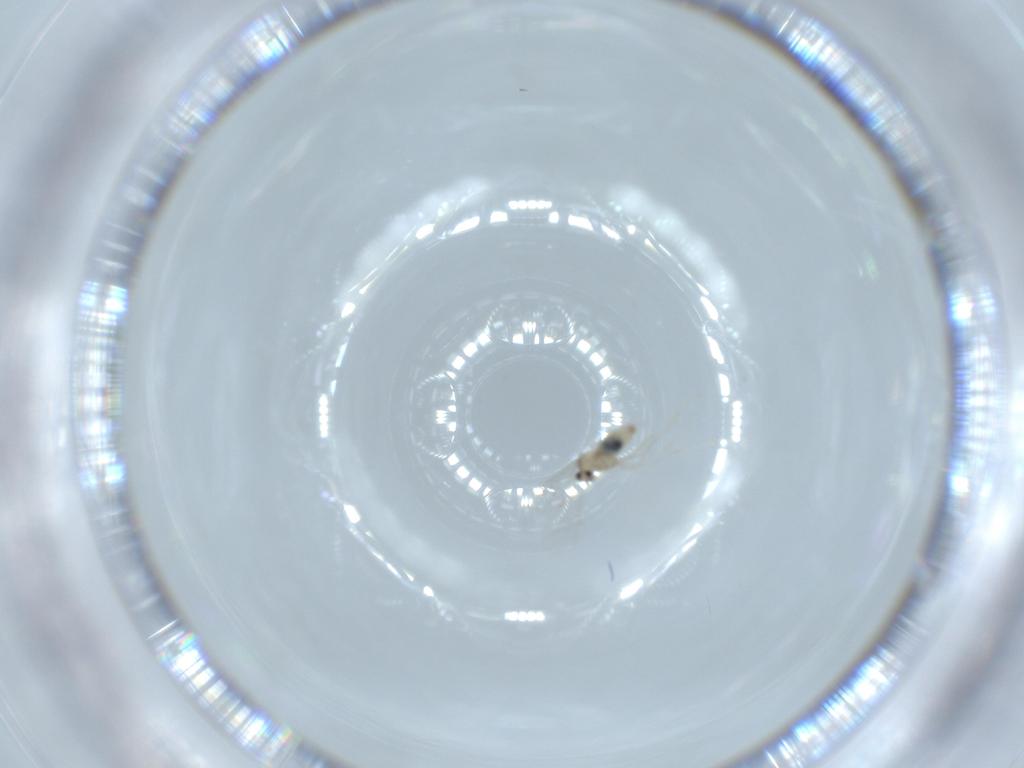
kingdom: Animalia
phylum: Arthropoda
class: Insecta
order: Diptera
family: Cecidomyiidae
